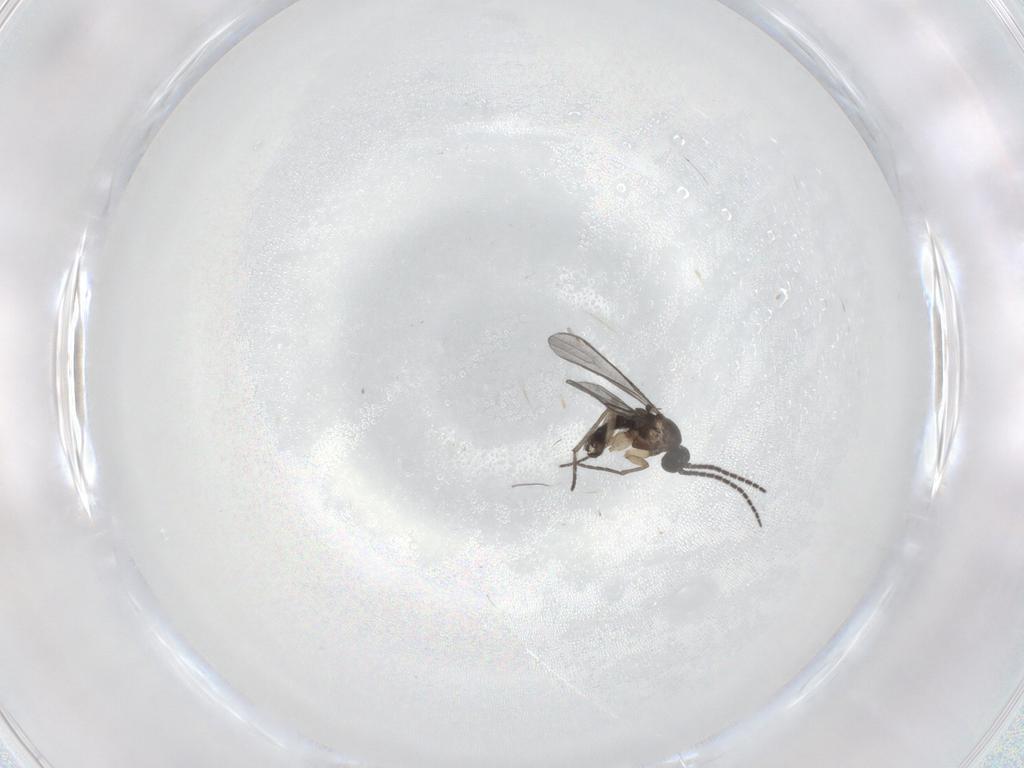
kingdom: Animalia
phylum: Arthropoda
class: Insecta
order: Diptera
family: Sciaridae
